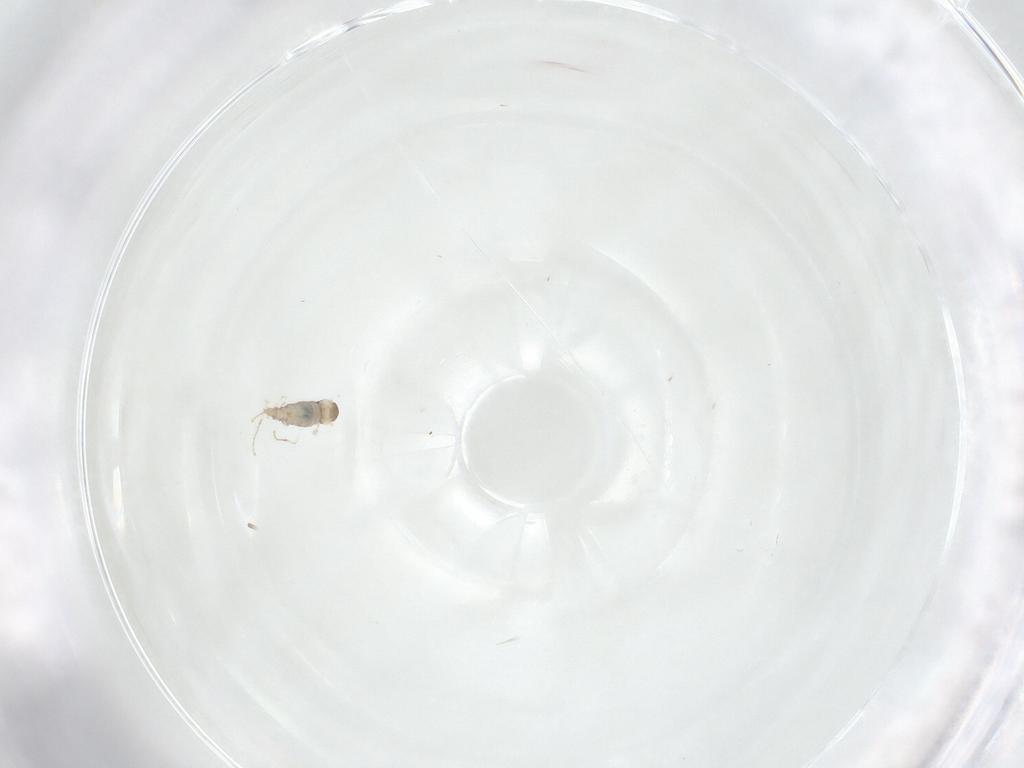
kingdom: Animalia
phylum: Arthropoda
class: Insecta
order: Diptera
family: Cecidomyiidae
